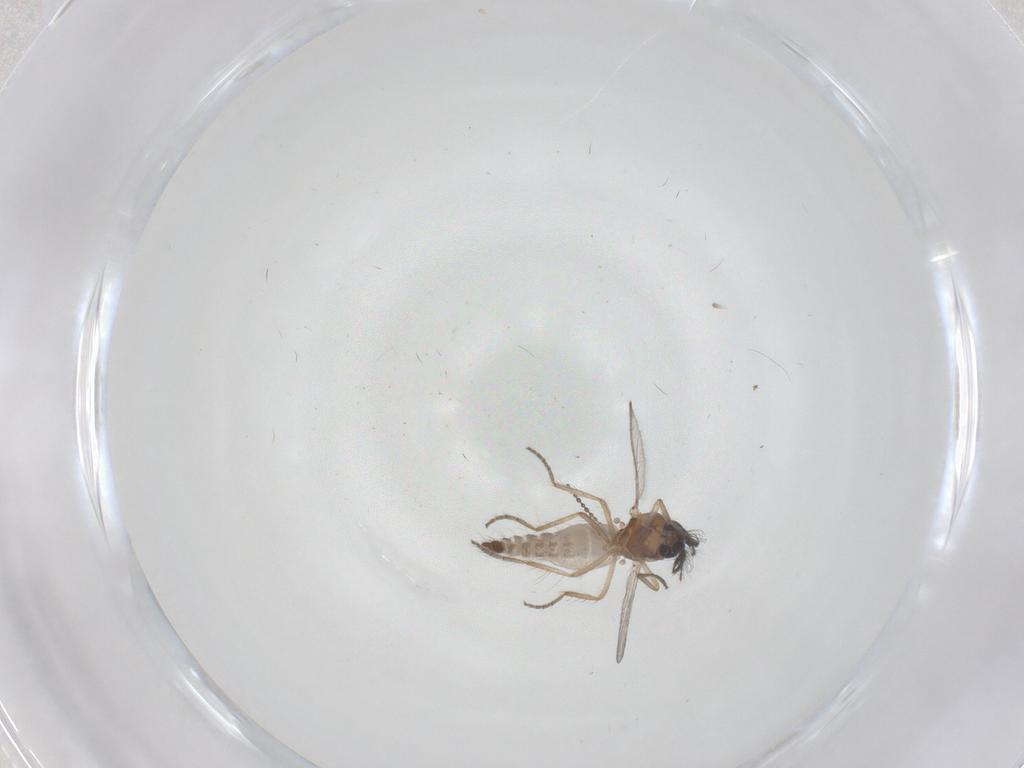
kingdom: Animalia
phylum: Arthropoda
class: Insecta
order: Diptera
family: Cecidomyiidae
